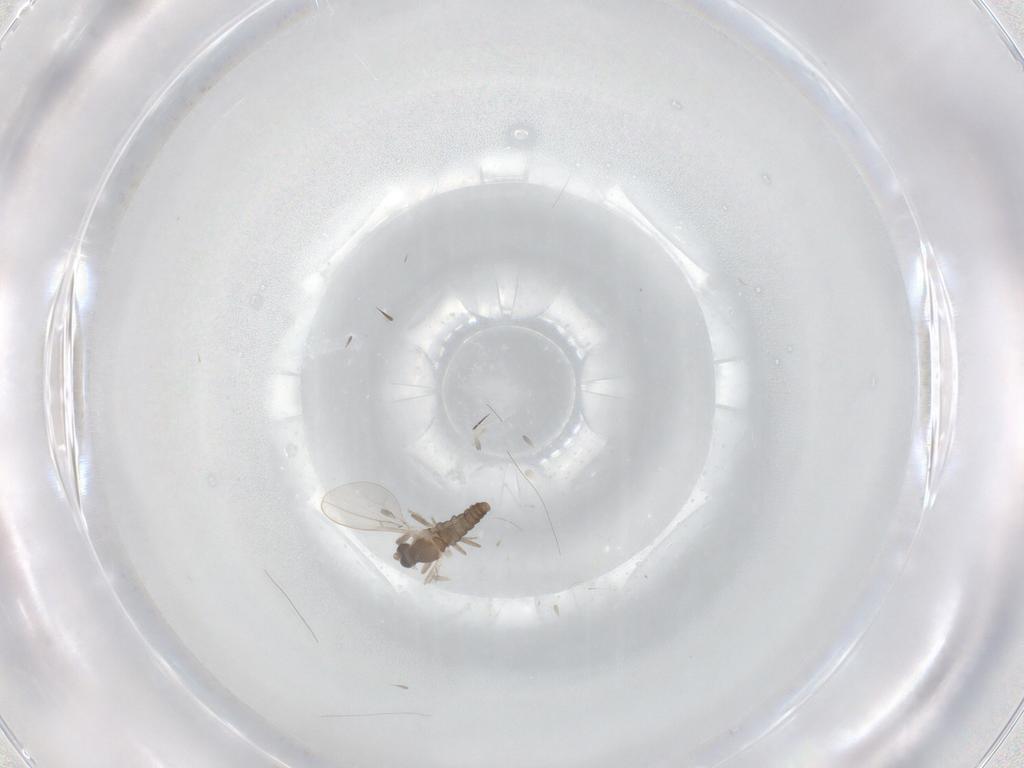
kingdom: Animalia
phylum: Arthropoda
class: Insecta
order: Diptera
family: Cecidomyiidae
